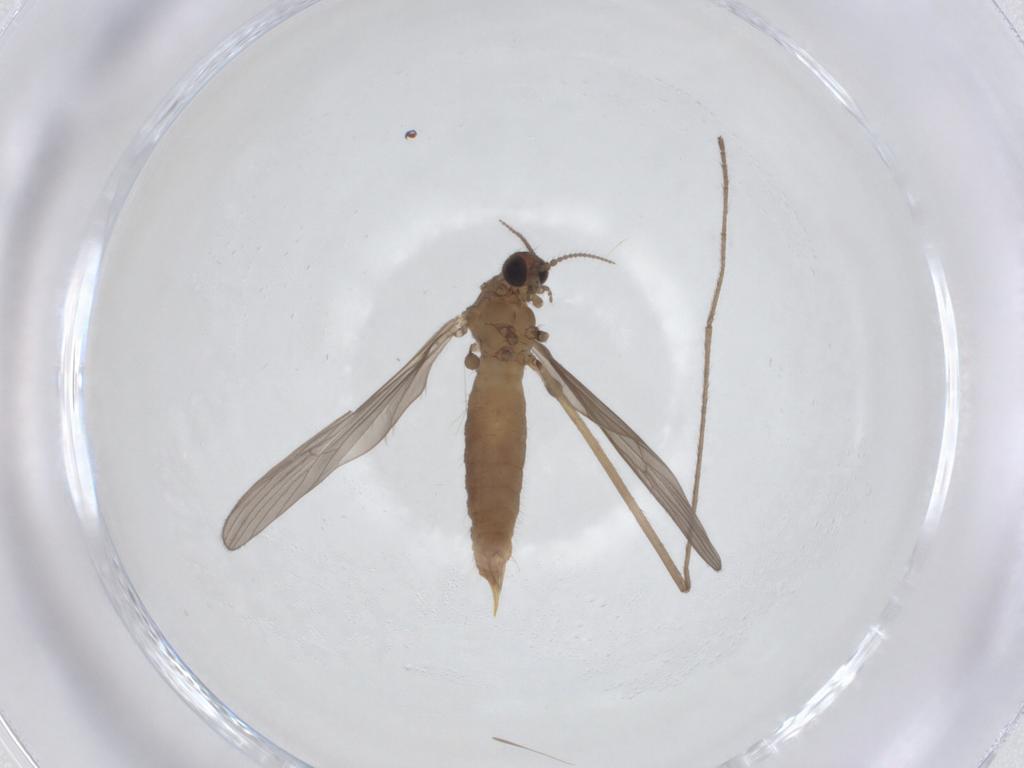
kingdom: Animalia
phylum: Arthropoda
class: Insecta
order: Diptera
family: Limoniidae
